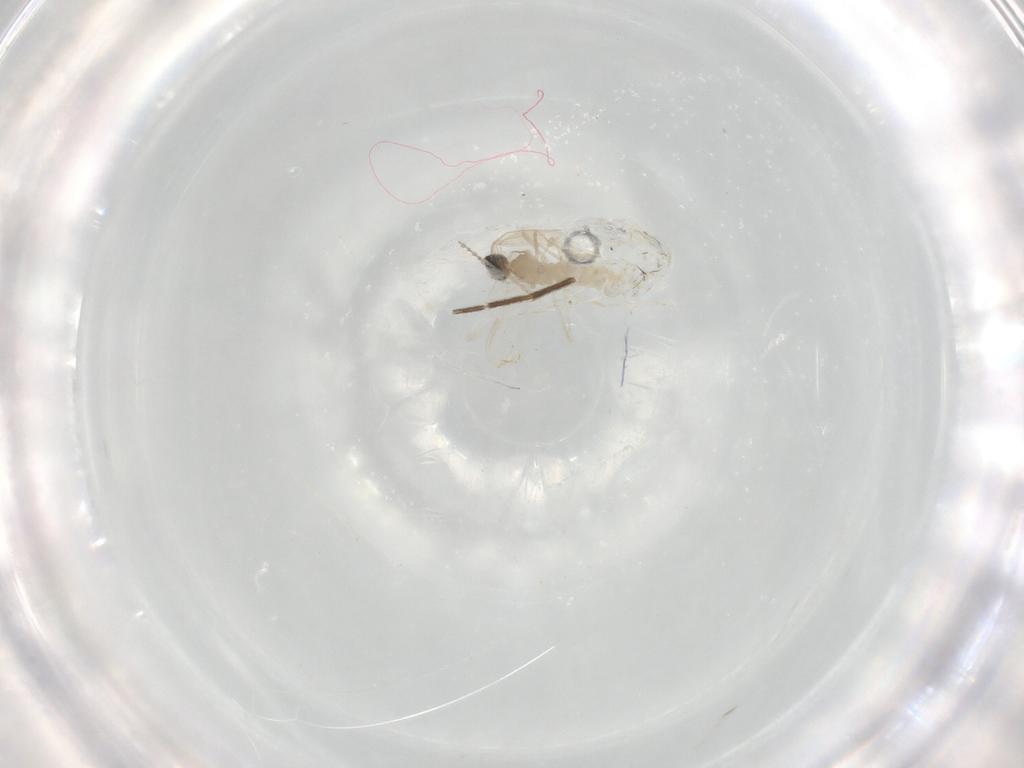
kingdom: Animalia
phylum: Arthropoda
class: Insecta
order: Diptera
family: Cecidomyiidae
